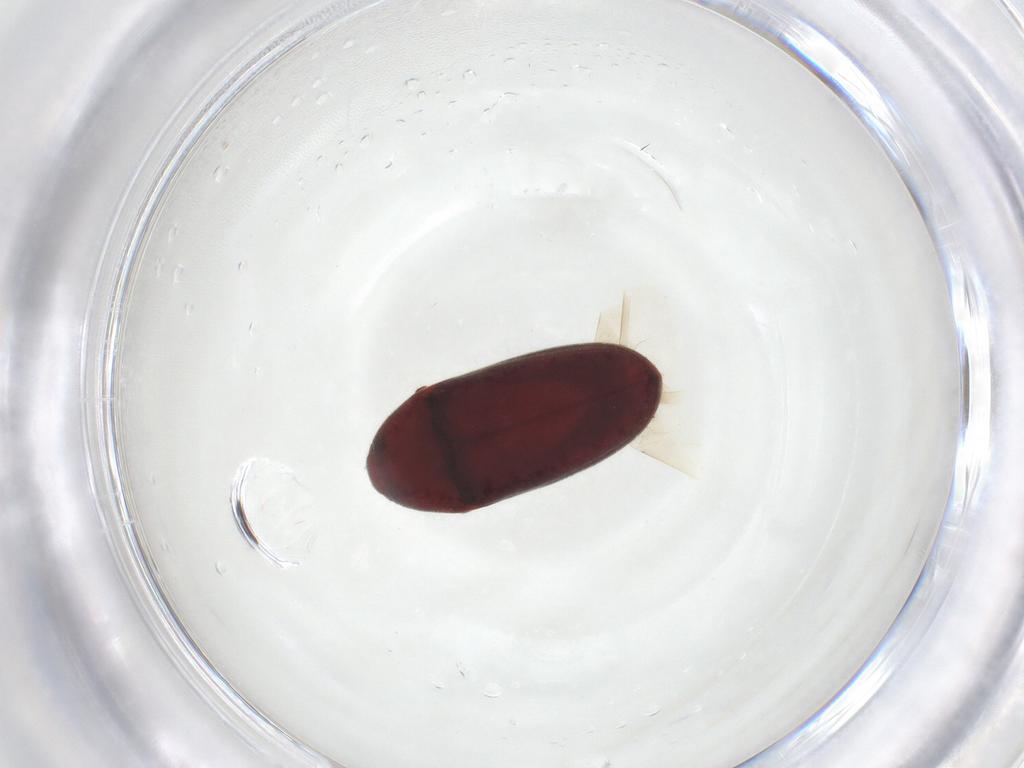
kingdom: Animalia
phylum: Arthropoda
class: Insecta
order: Coleoptera
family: Throscidae
